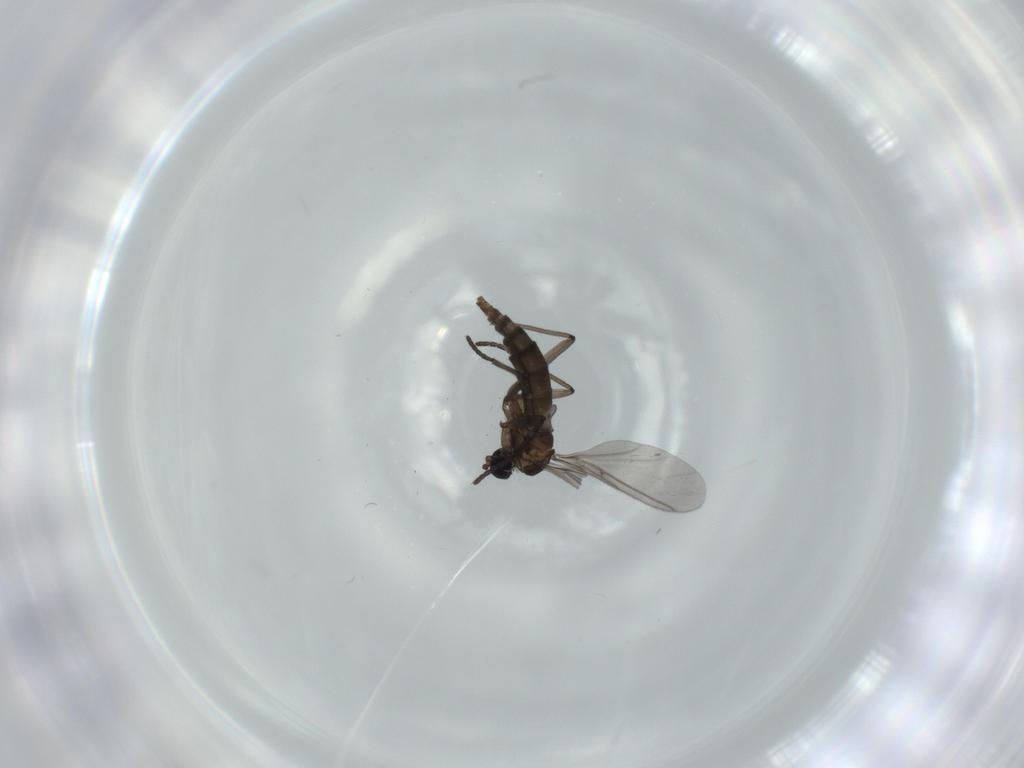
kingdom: Animalia
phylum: Arthropoda
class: Insecta
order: Diptera
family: Sciaridae
